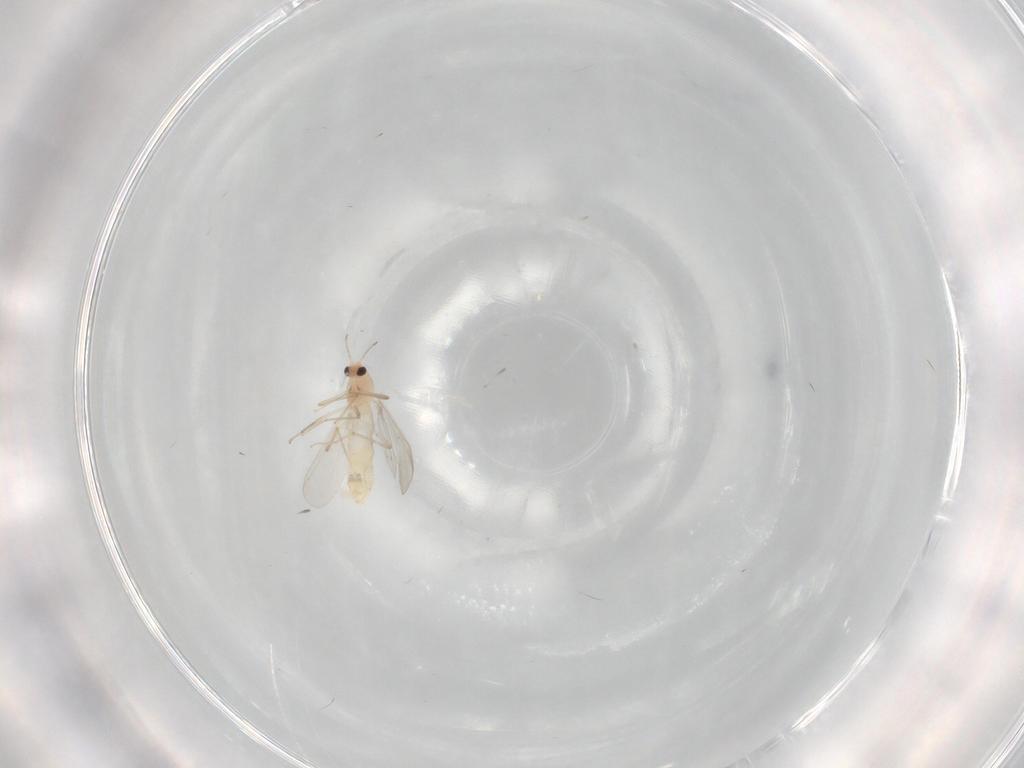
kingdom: Animalia
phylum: Arthropoda
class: Insecta
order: Diptera
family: Chironomidae
